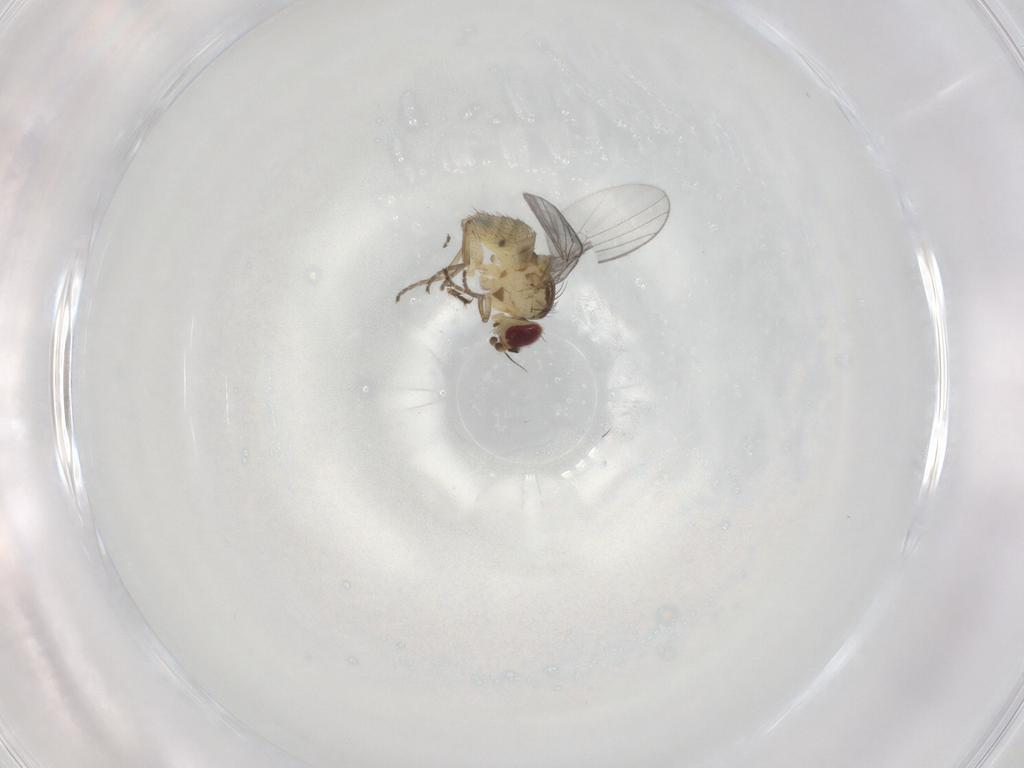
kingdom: Animalia
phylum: Arthropoda
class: Insecta
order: Diptera
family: Agromyzidae
